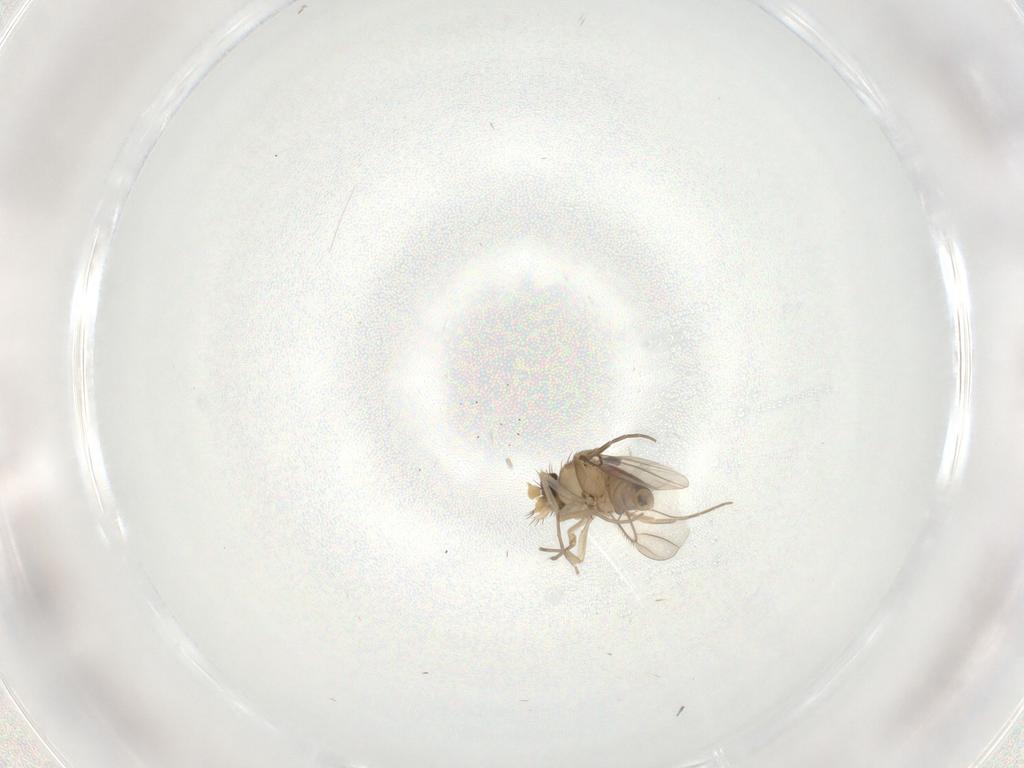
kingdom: Animalia
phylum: Arthropoda
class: Insecta
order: Diptera
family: Phoridae
